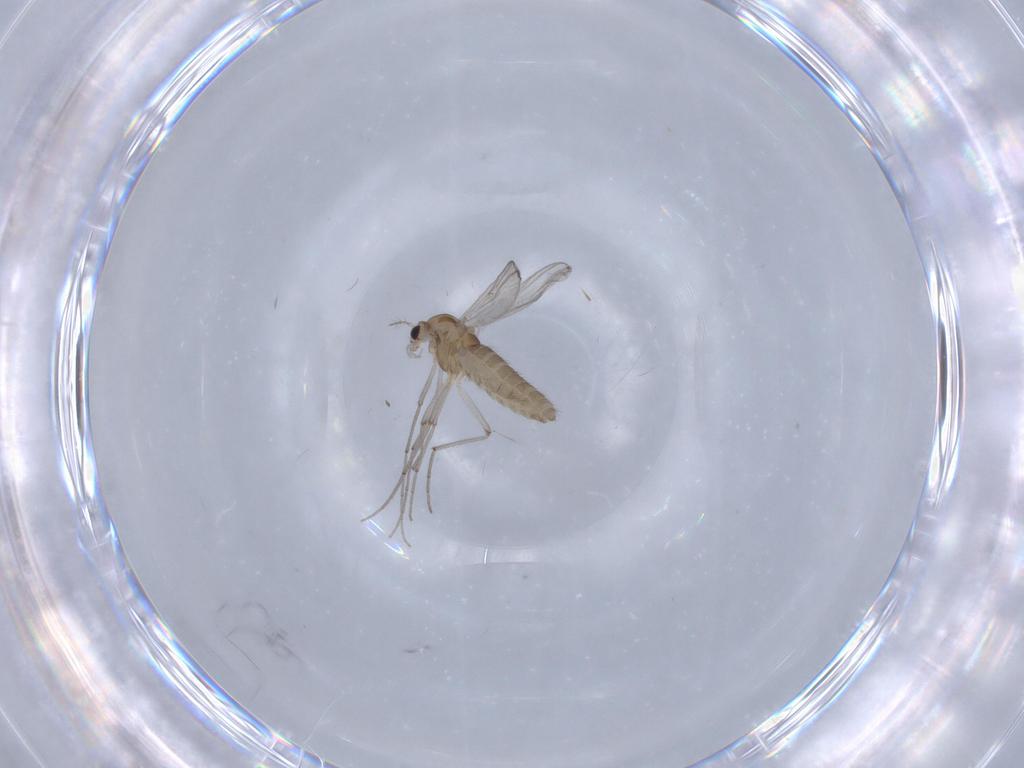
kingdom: Animalia
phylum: Arthropoda
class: Insecta
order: Diptera
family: Chironomidae
